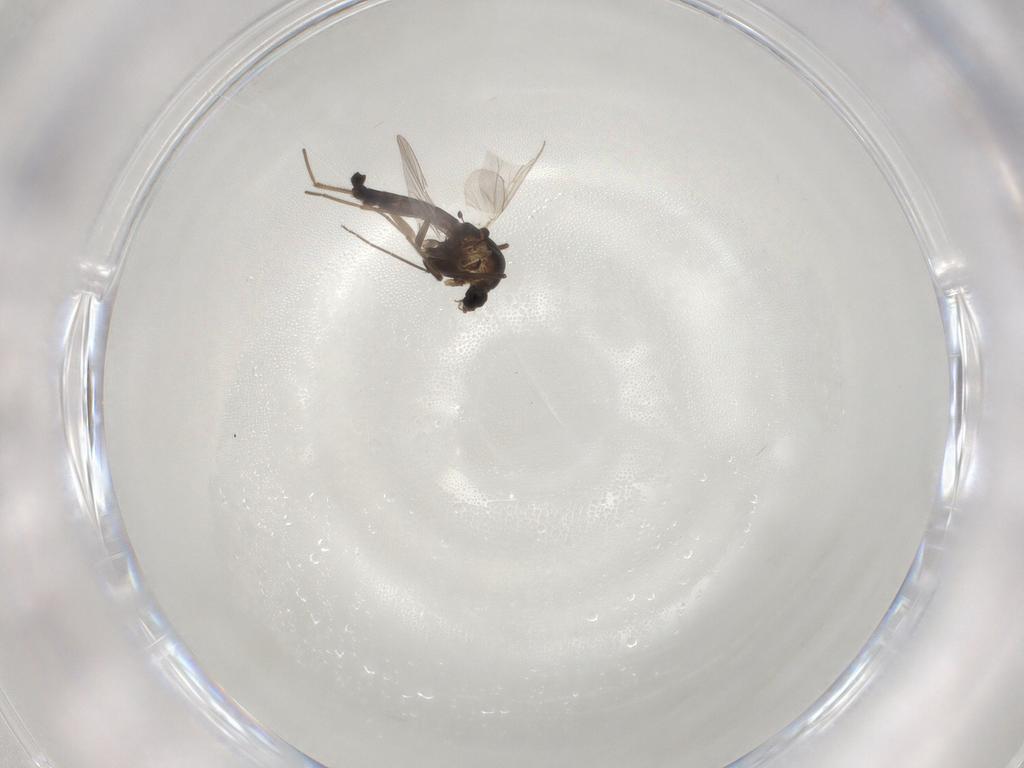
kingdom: Animalia
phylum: Arthropoda
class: Insecta
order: Diptera
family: Chironomidae
